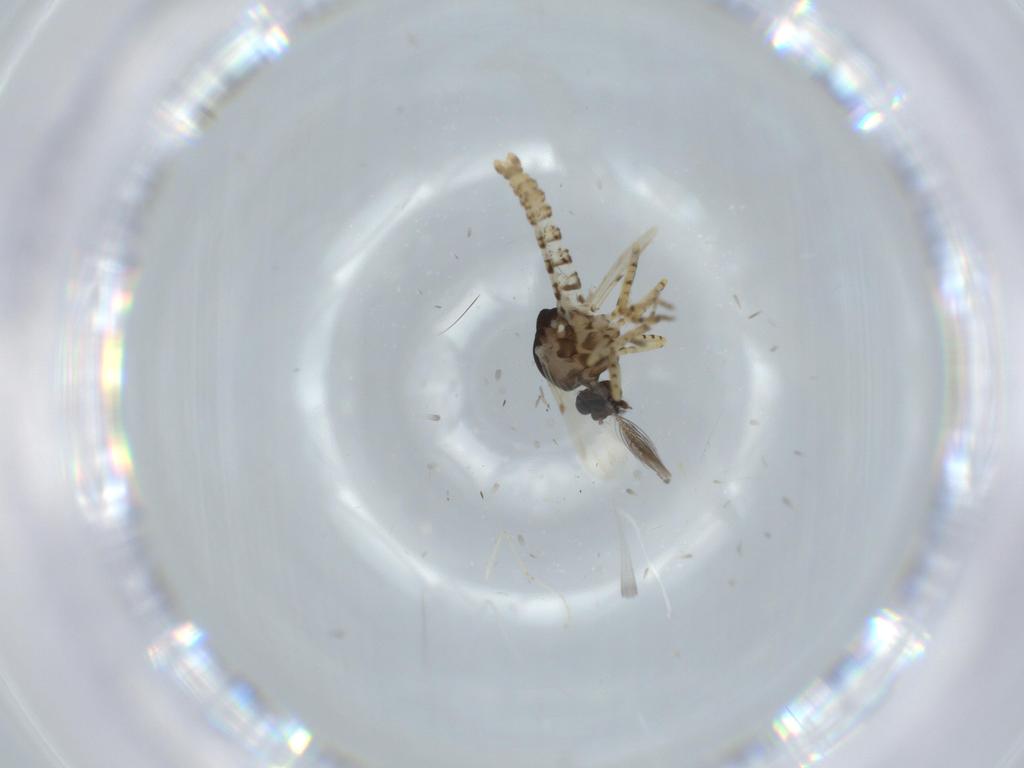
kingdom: Animalia
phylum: Arthropoda
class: Insecta
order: Diptera
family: Ceratopogonidae
